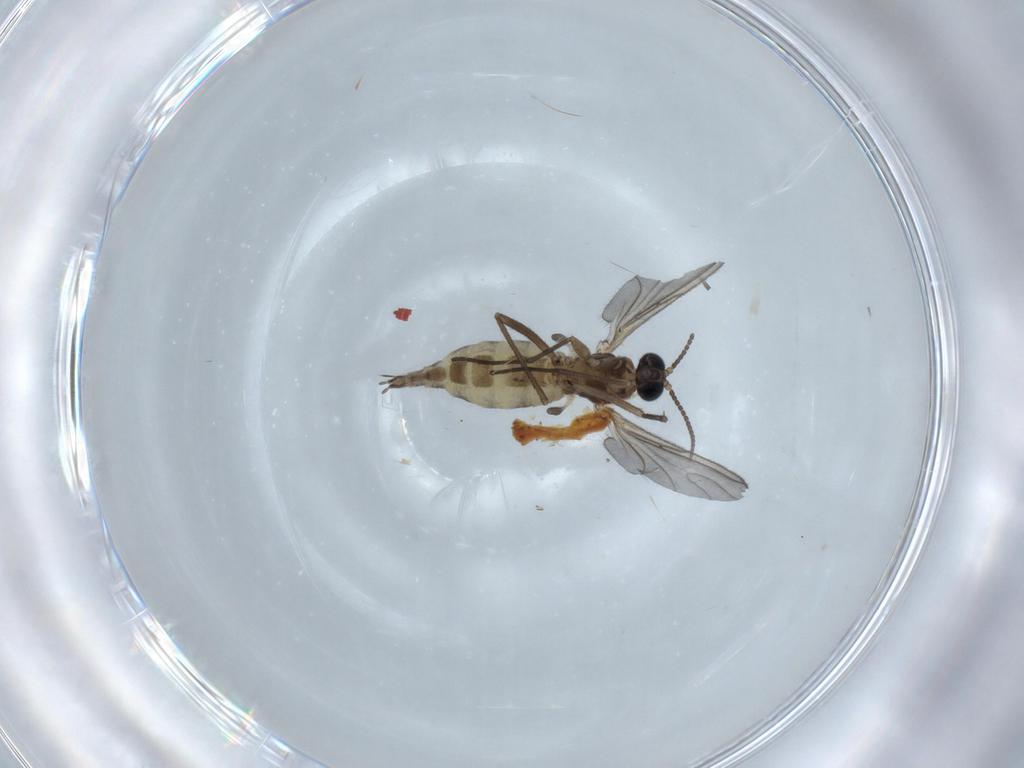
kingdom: Animalia
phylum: Arthropoda
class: Insecta
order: Diptera
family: Sciaridae
